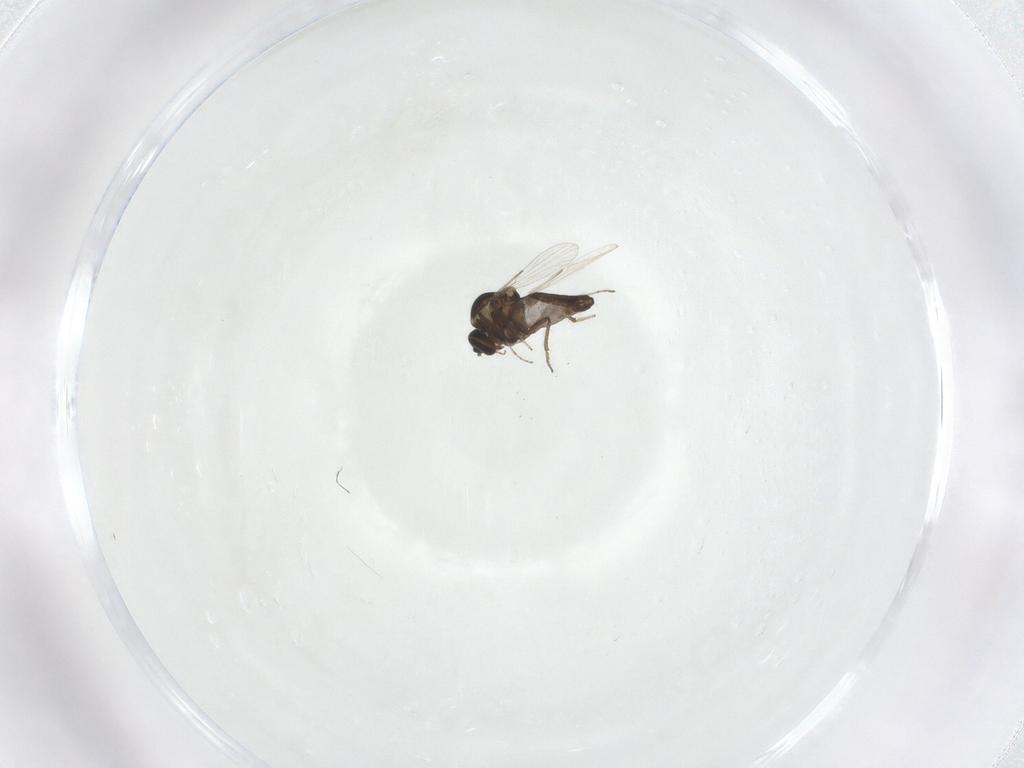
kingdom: Animalia
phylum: Arthropoda
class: Insecta
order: Diptera
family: Ceratopogonidae
